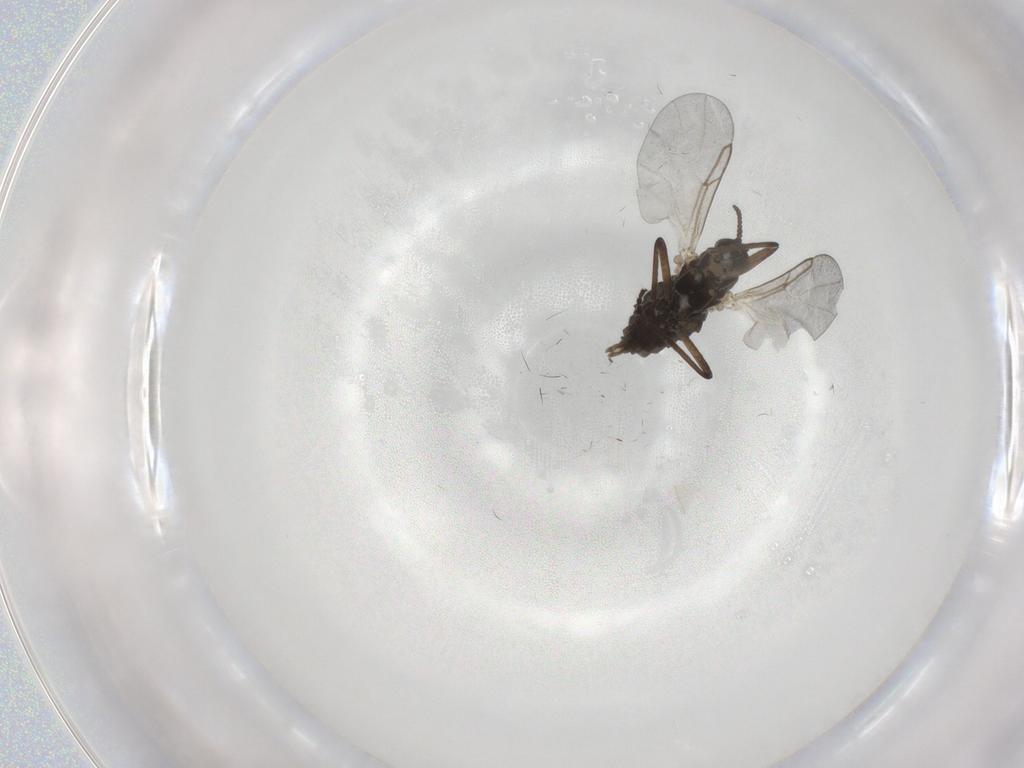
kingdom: Animalia
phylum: Arthropoda
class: Insecta
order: Diptera
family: Cecidomyiidae
